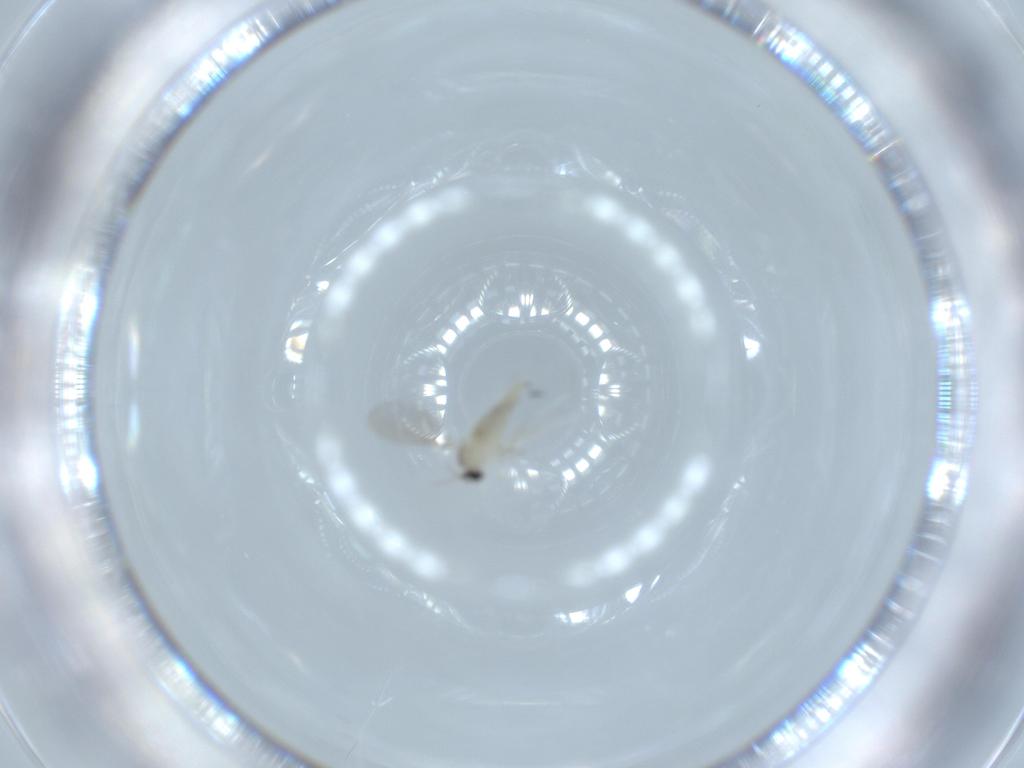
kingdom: Animalia
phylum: Arthropoda
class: Insecta
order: Diptera
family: Cecidomyiidae
